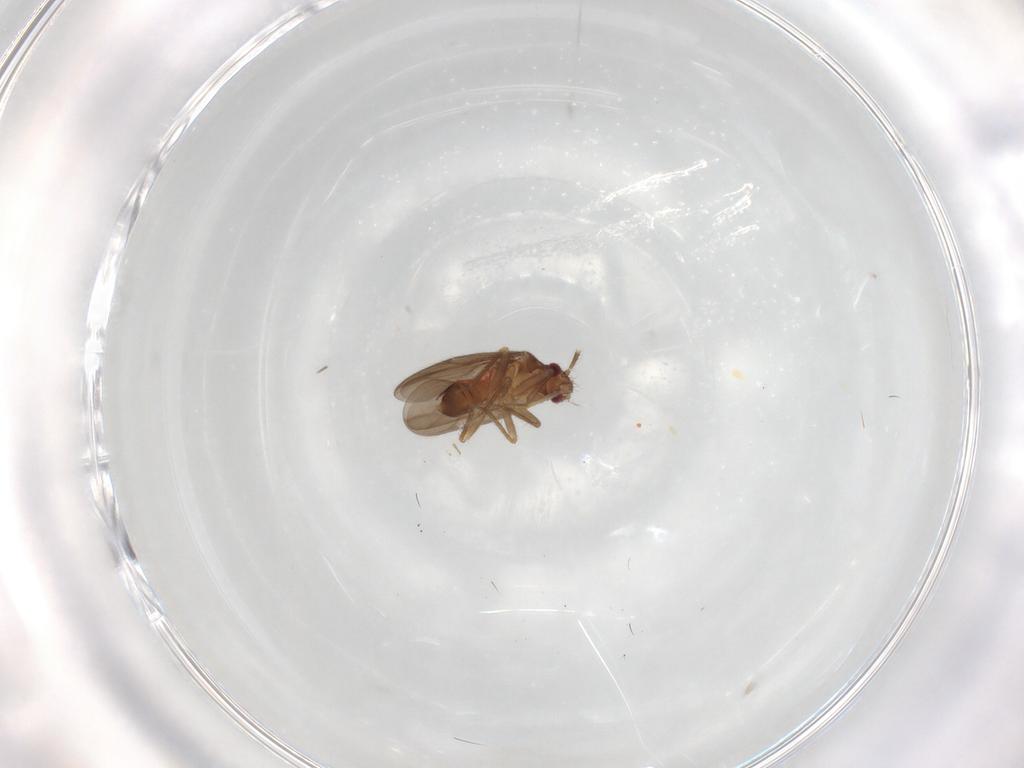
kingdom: Animalia
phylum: Arthropoda
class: Insecta
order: Hemiptera
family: Ceratocombidae
